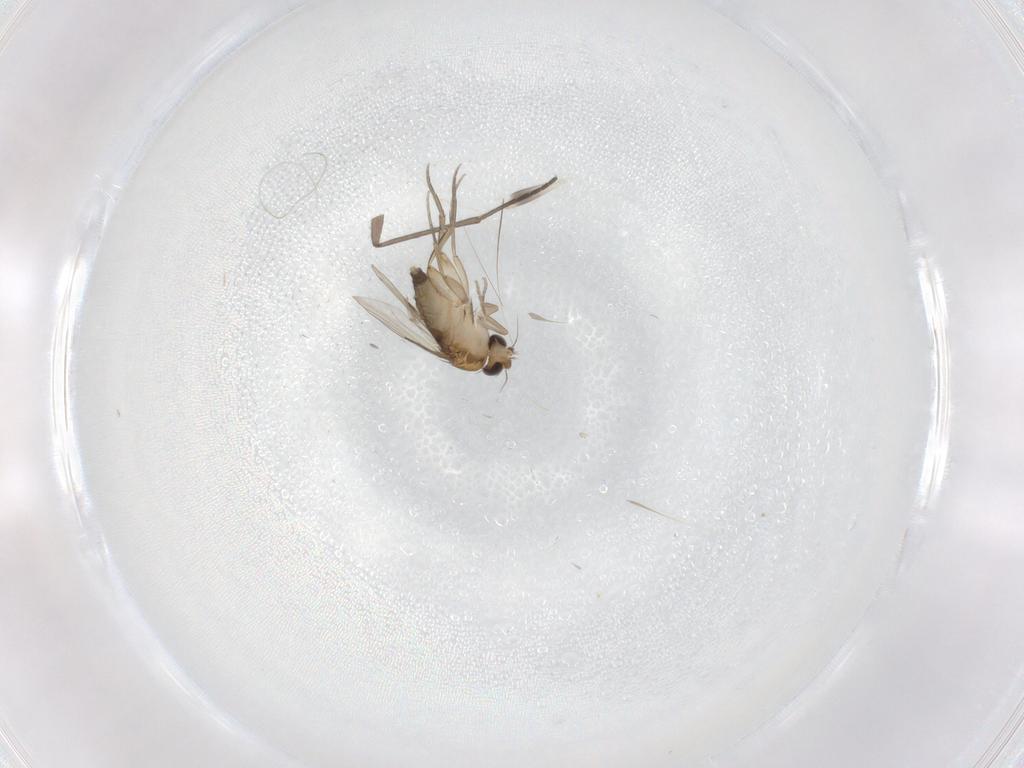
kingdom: Animalia
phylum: Arthropoda
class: Insecta
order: Diptera
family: Phoridae
